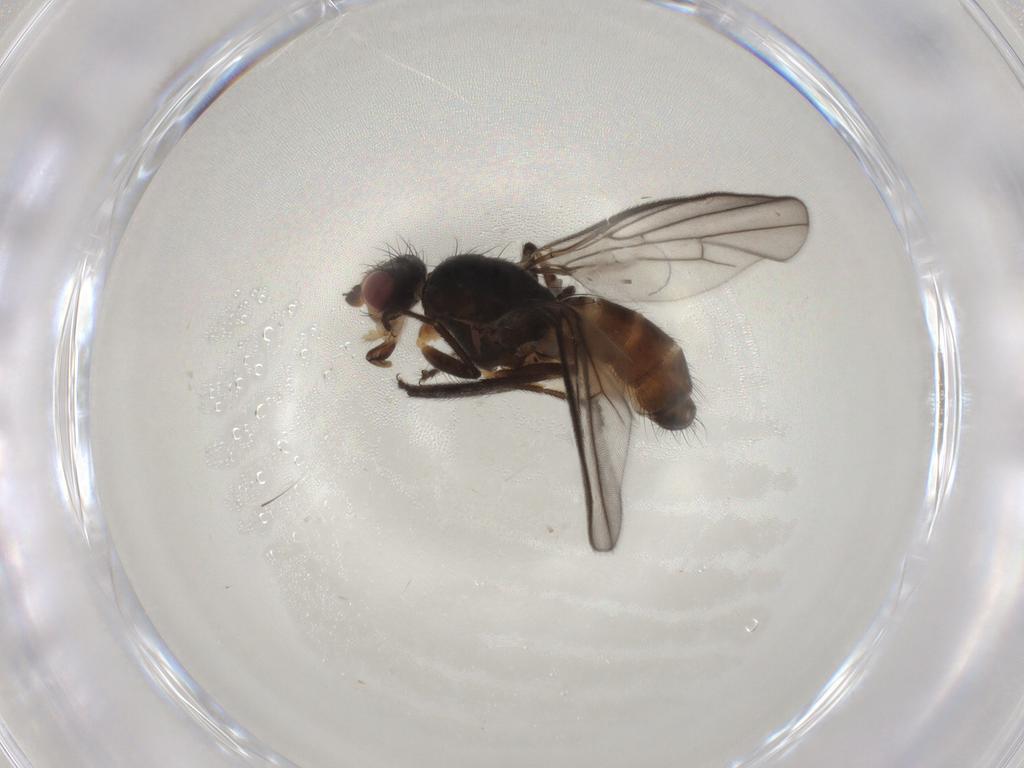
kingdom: Animalia
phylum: Arthropoda
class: Insecta
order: Diptera
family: Chloropidae
